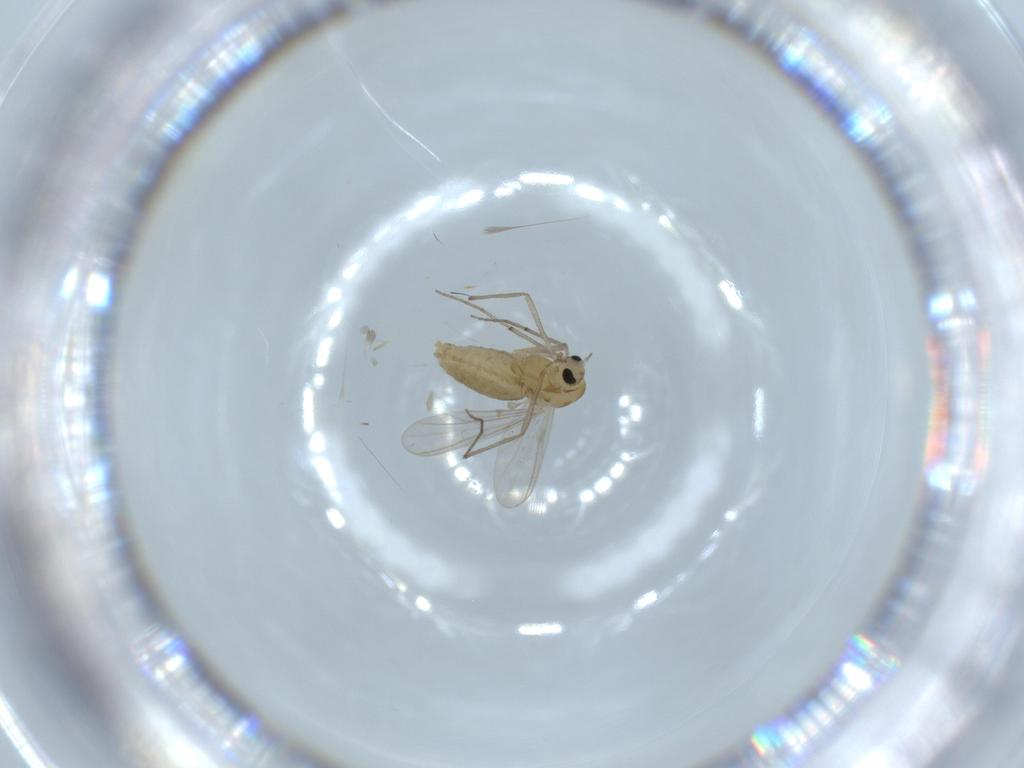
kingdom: Animalia
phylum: Arthropoda
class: Insecta
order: Diptera
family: Chironomidae
